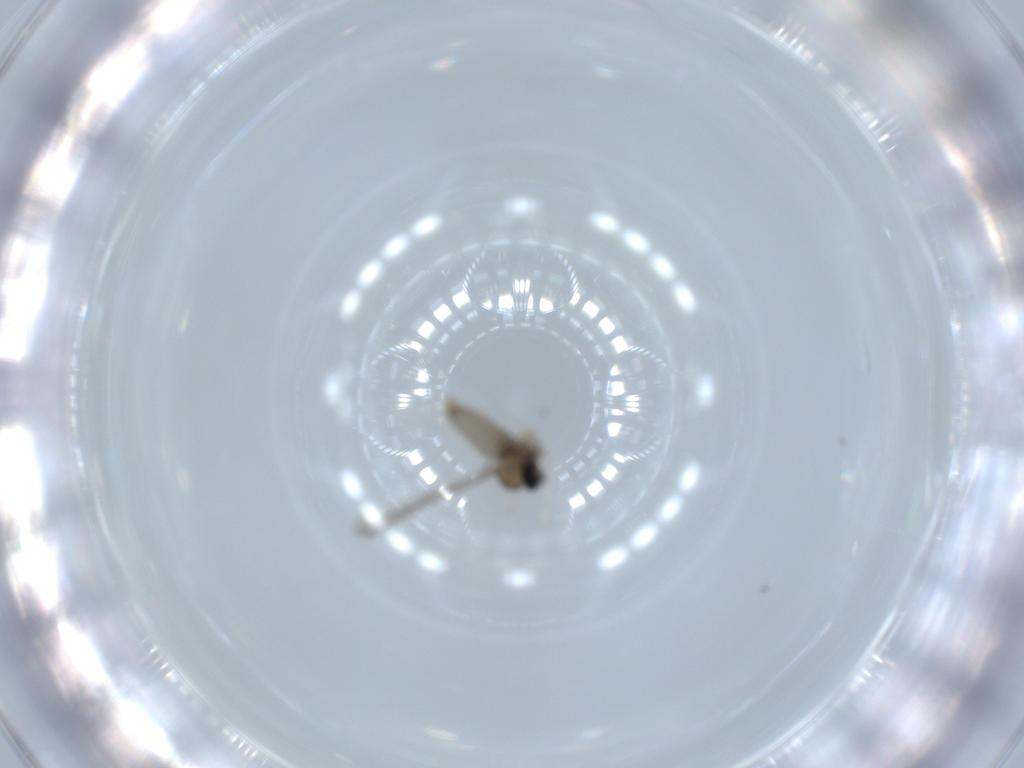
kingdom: Animalia
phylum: Arthropoda
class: Insecta
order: Diptera
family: Cecidomyiidae
